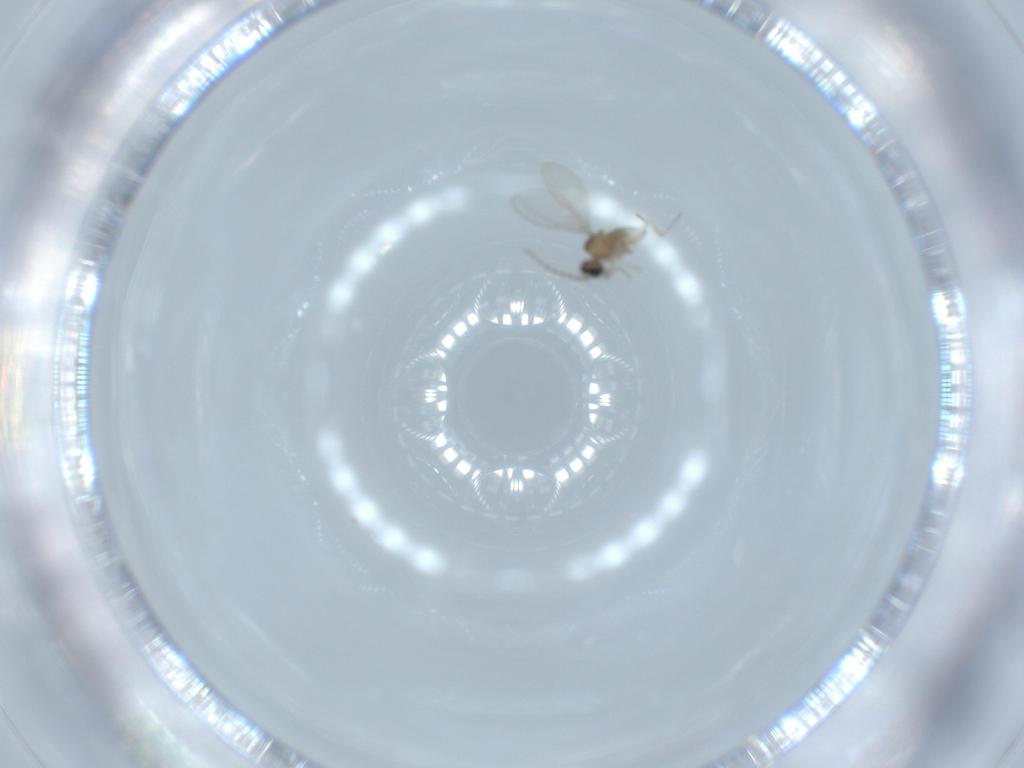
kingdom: Animalia
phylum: Arthropoda
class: Insecta
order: Diptera
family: Cecidomyiidae
